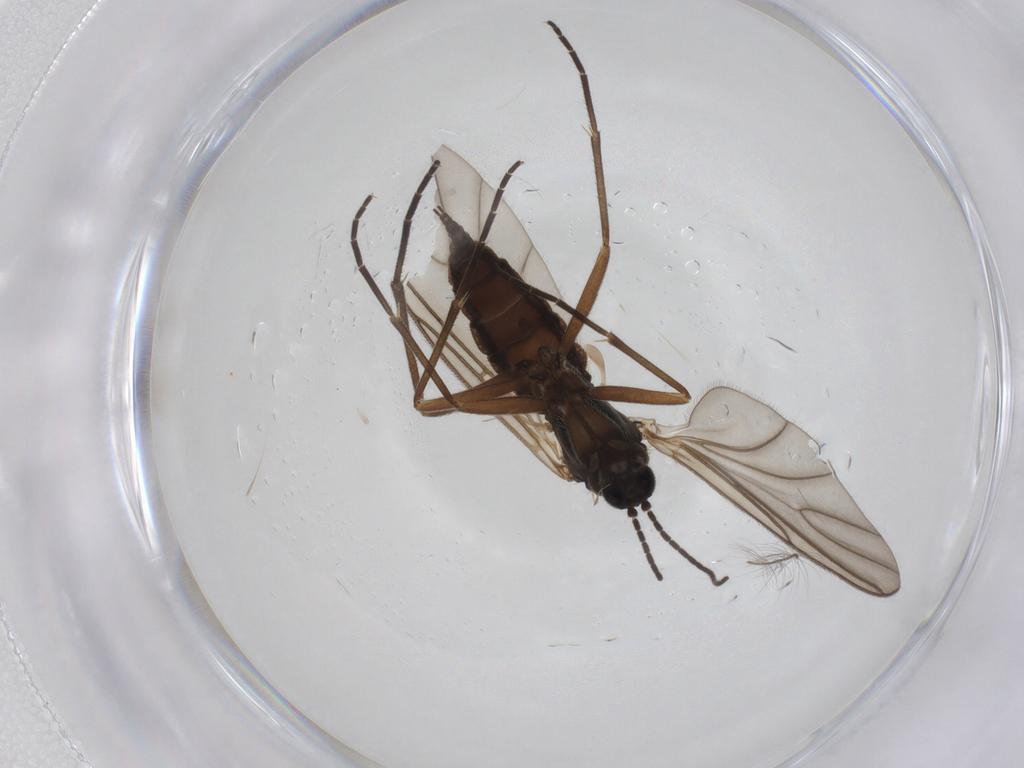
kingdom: Animalia
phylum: Arthropoda
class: Insecta
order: Diptera
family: Sciaridae
